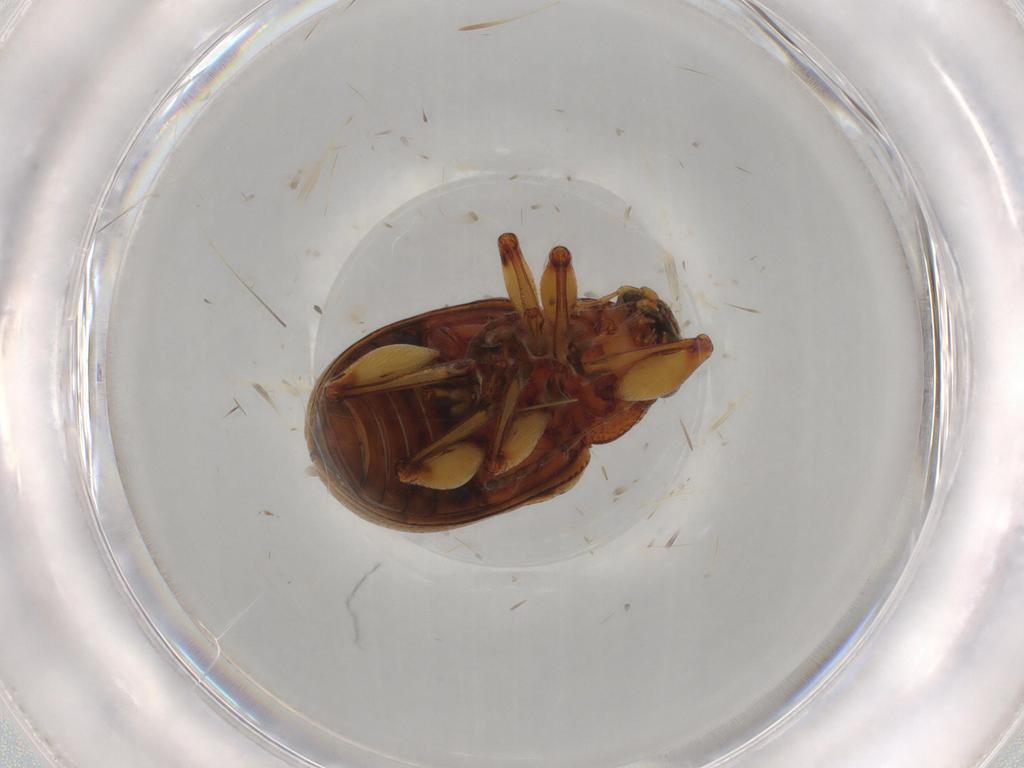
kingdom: Animalia
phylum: Arthropoda
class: Insecta
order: Coleoptera
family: Chrysomelidae
